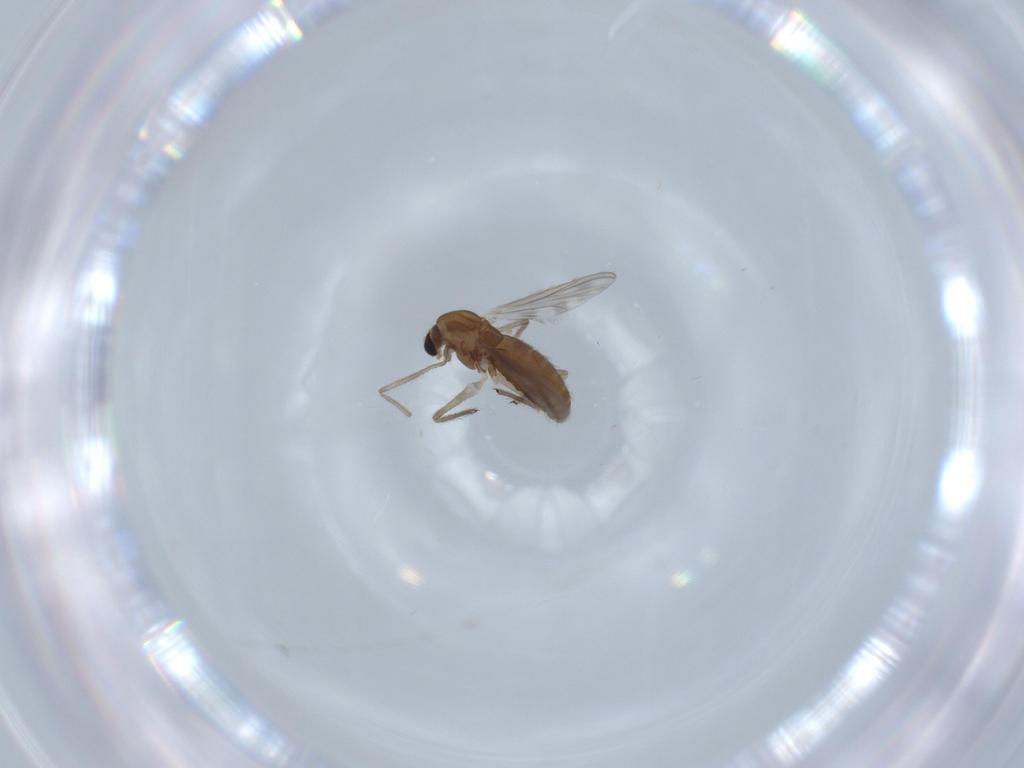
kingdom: Animalia
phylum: Arthropoda
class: Insecta
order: Diptera
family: Chironomidae
